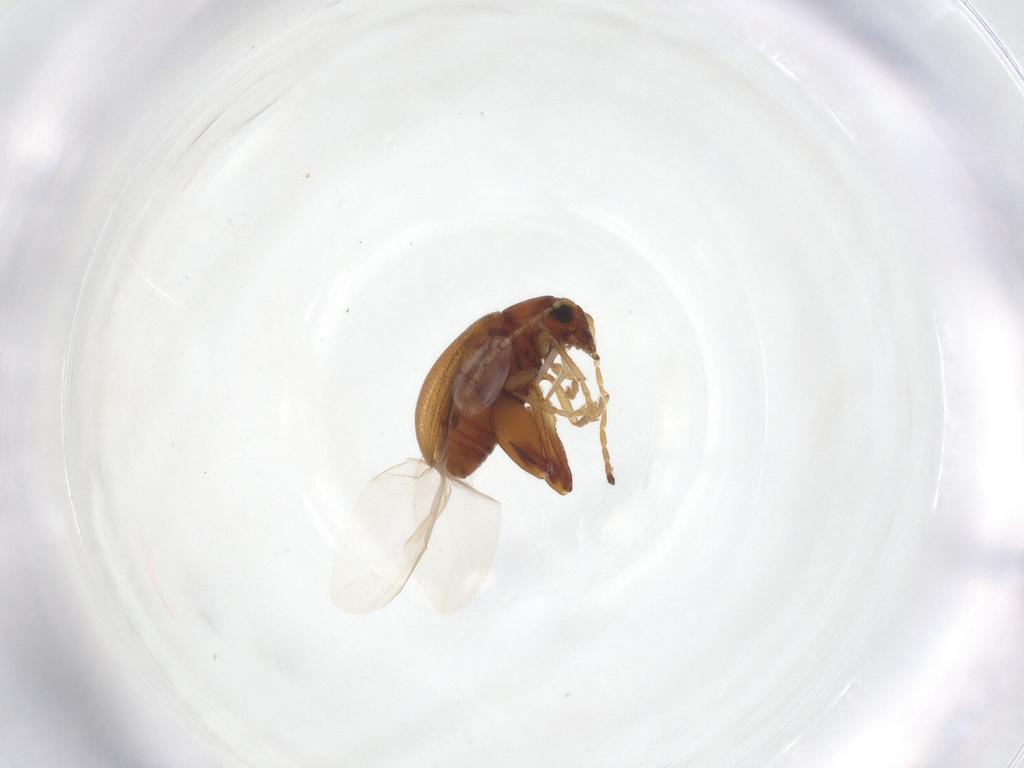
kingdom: Animalia
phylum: Arthropoda
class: Insecta
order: Coleoptera
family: Chrysomelidae
